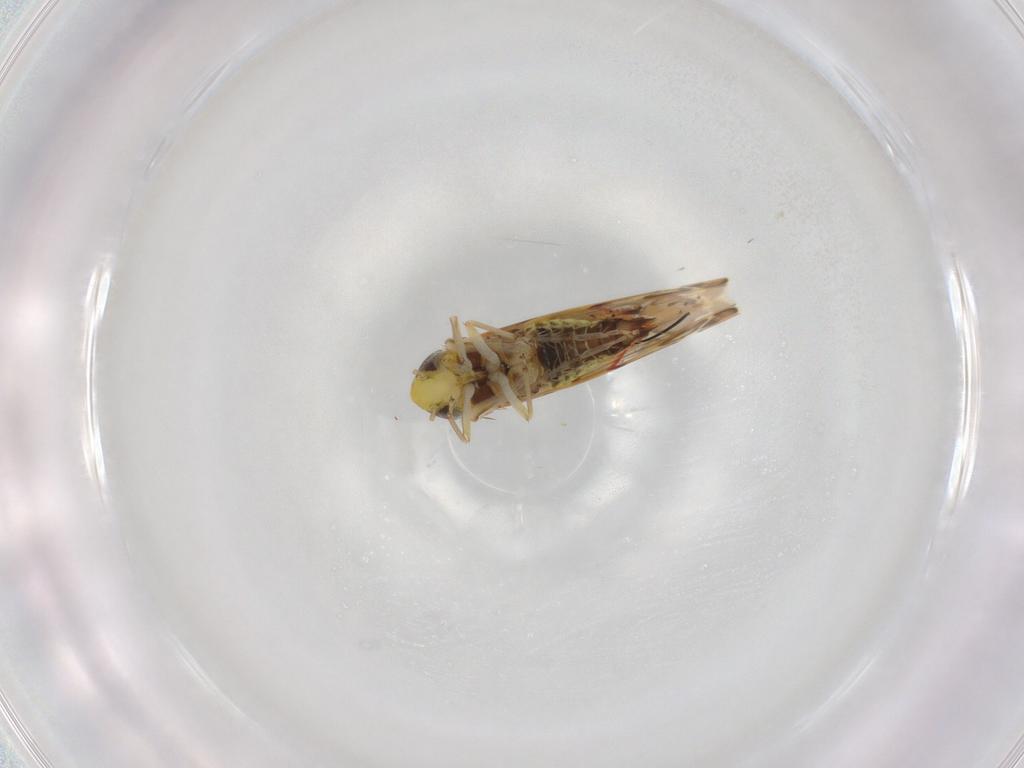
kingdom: Animalia
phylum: Arthropoda
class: Insecta
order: Hemiptera
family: Cicadellidae
